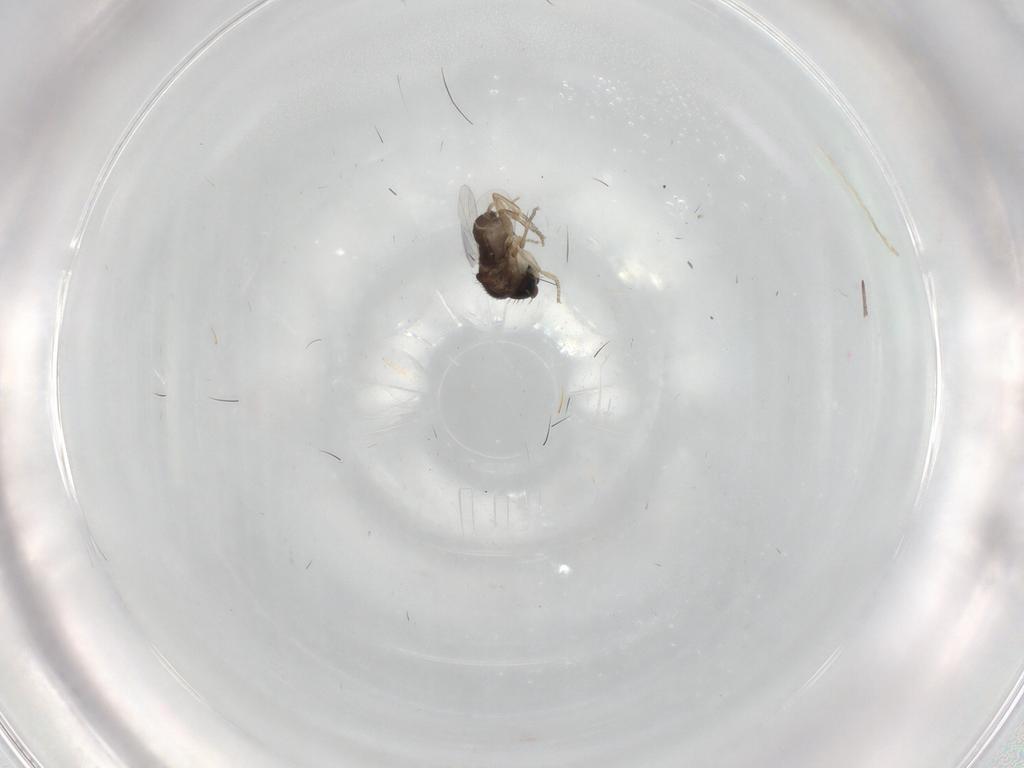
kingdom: Animalia
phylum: Arthropoda
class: Insecta
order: Diptera
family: Phoridae
